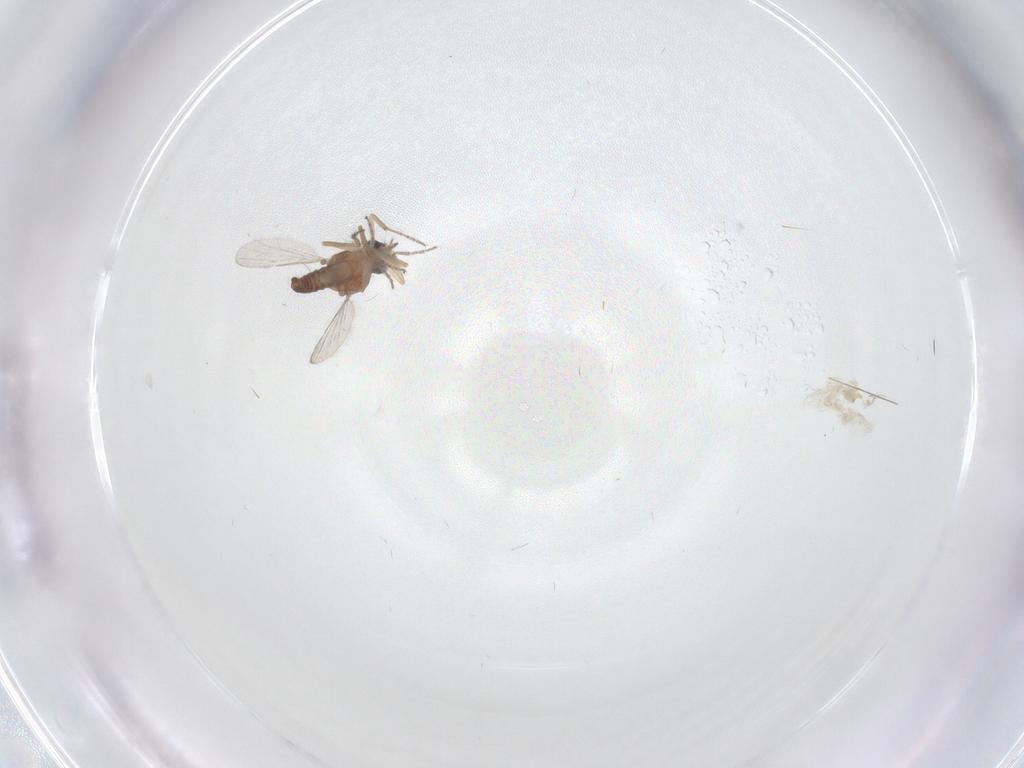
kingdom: Animalia
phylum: Arthropoda
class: Insecta
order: Diptera
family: Ceratopogonidae
